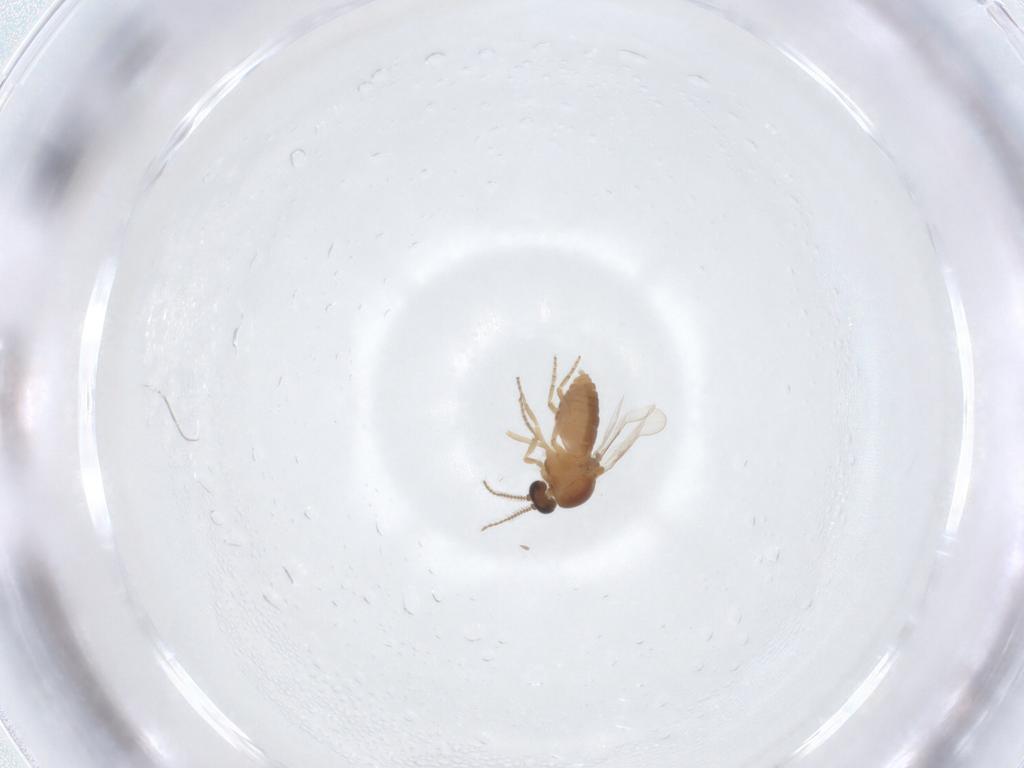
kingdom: Animalia
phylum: Arthropoda
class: Insecta
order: Diptera
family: Ceratopogonidae
